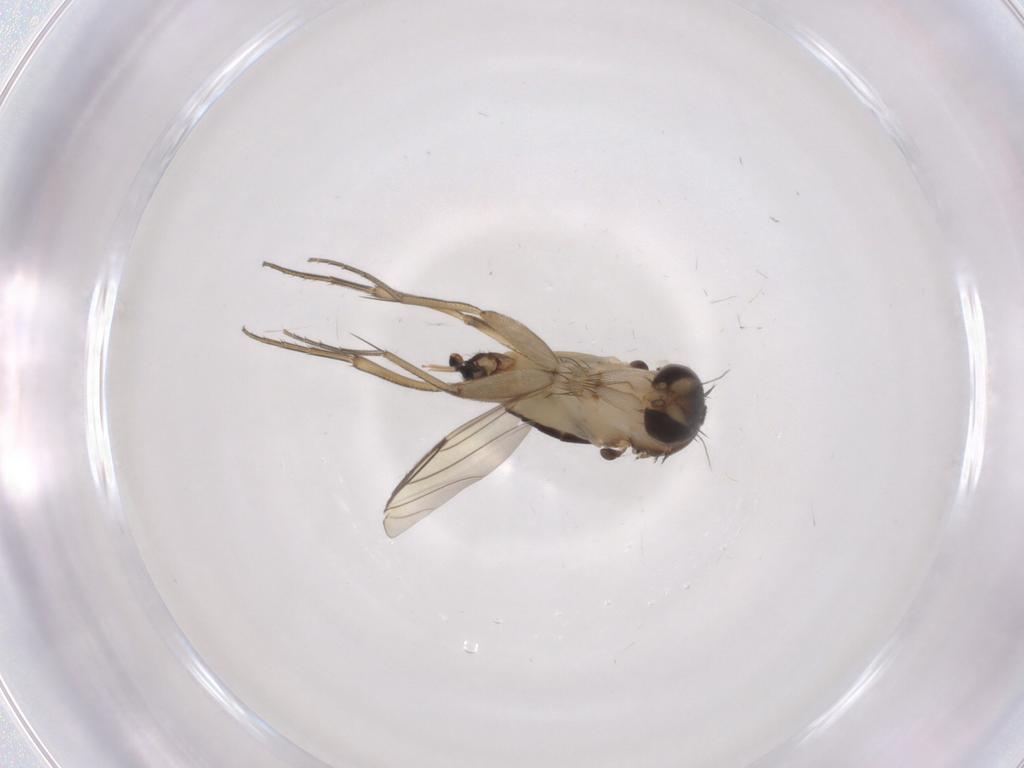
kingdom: Animalia
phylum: Arthropoda
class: Insecta
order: Diptera
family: Phoridae
